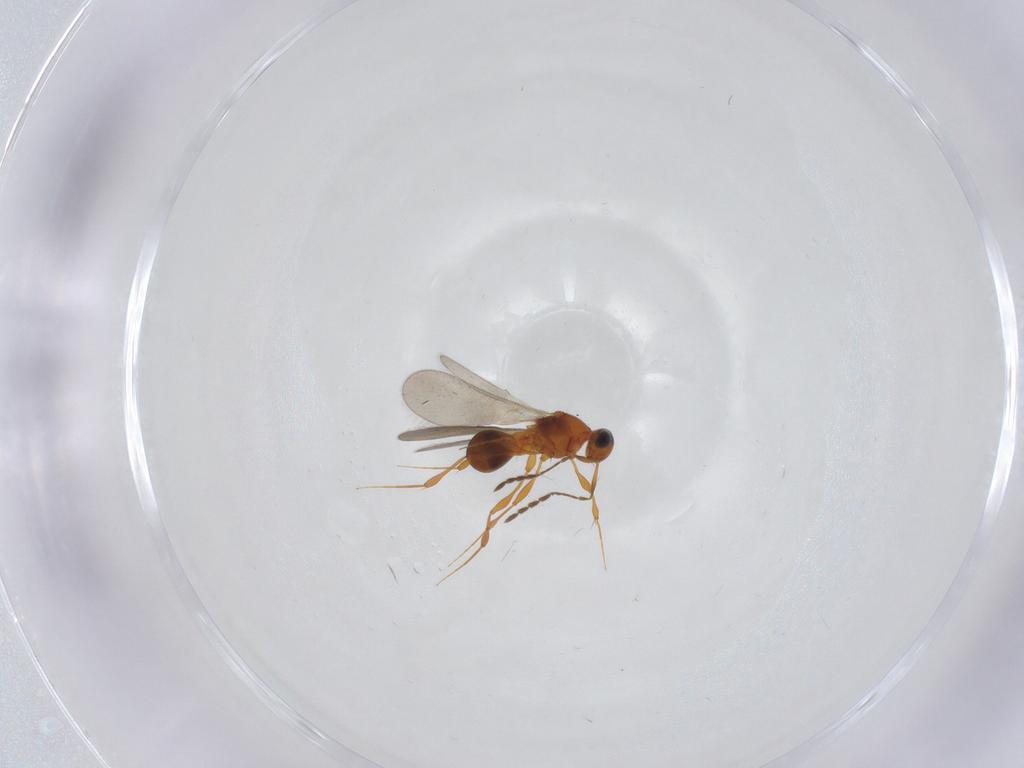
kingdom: Animalia
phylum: Arthropoda
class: Insecta
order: Hymenoptera
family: Platygastridae
